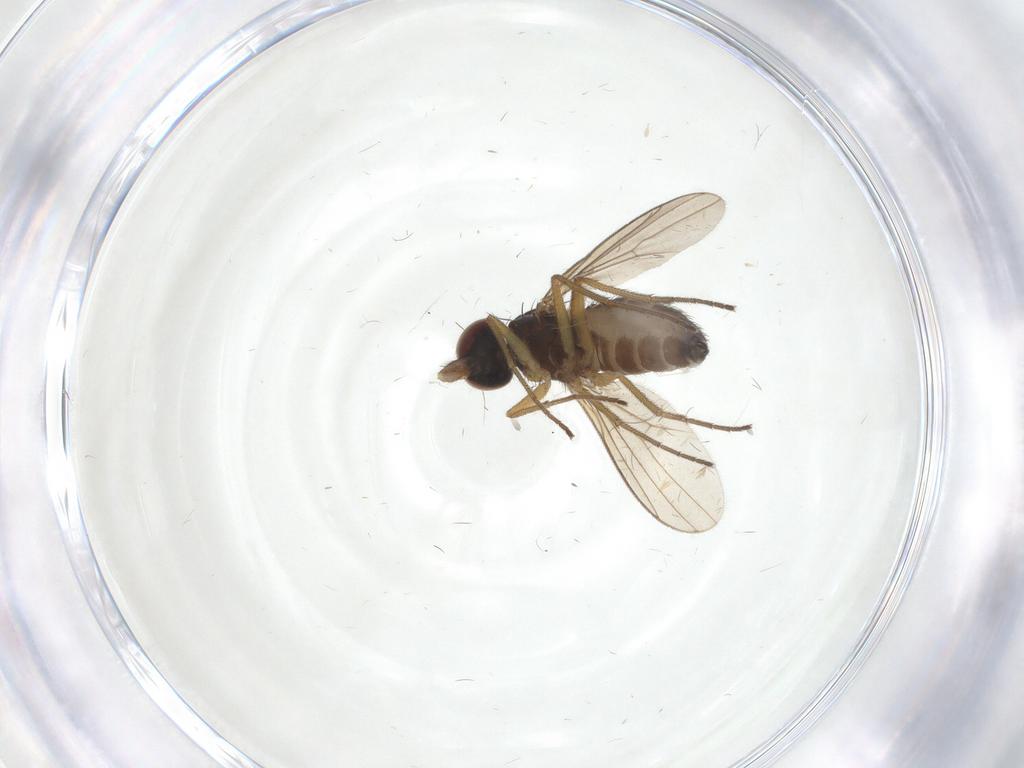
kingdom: Animalia
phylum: Arthropoda
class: Insecta
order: Diptera
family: Dolichopodidae
